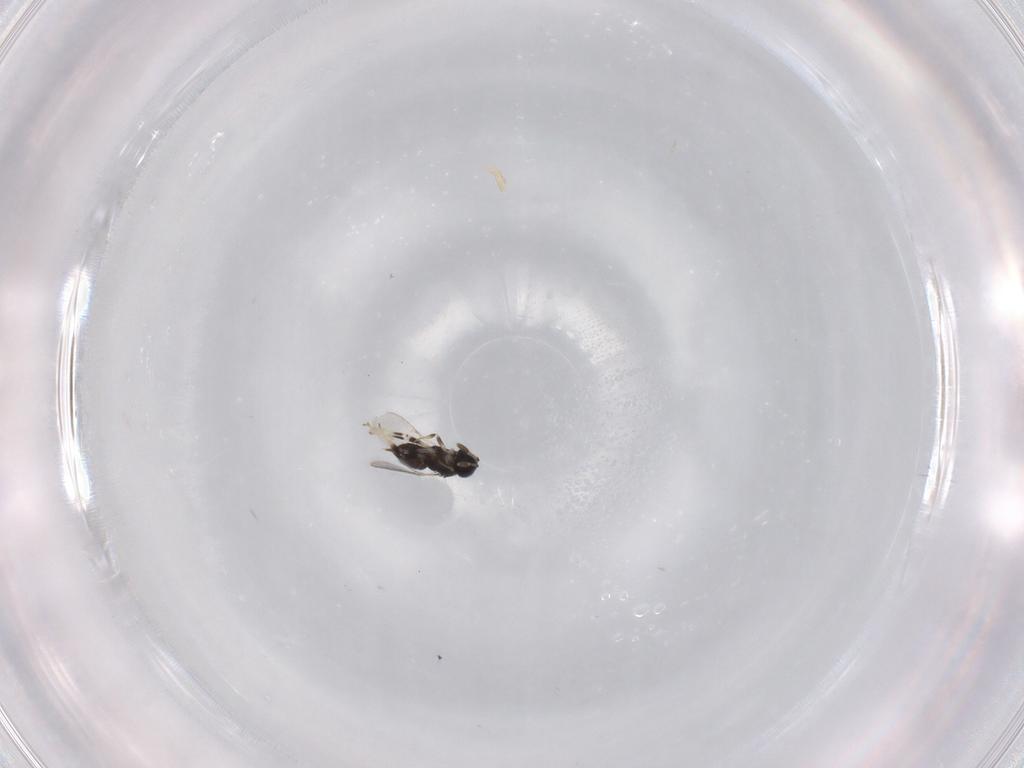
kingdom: Animalia
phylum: Arthropoda
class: Insecta
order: Hymenoptera
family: Encyrtidae
